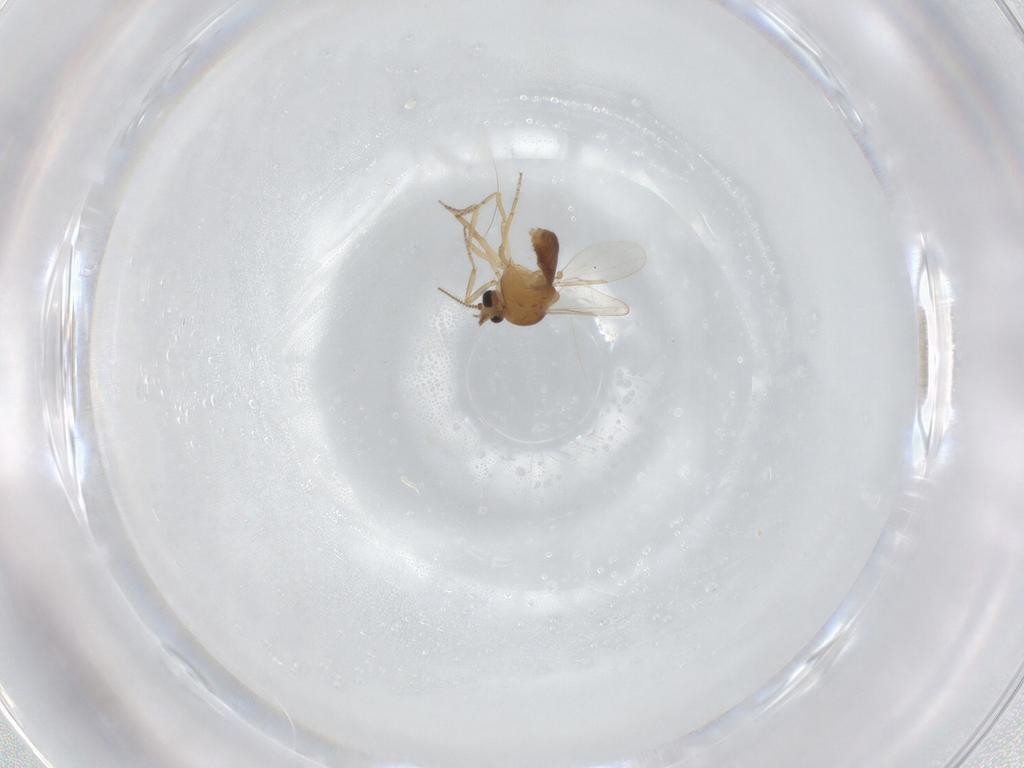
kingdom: Animalia
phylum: Arthropoda
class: Insecta
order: Diptera
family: Ceratopogonidae
